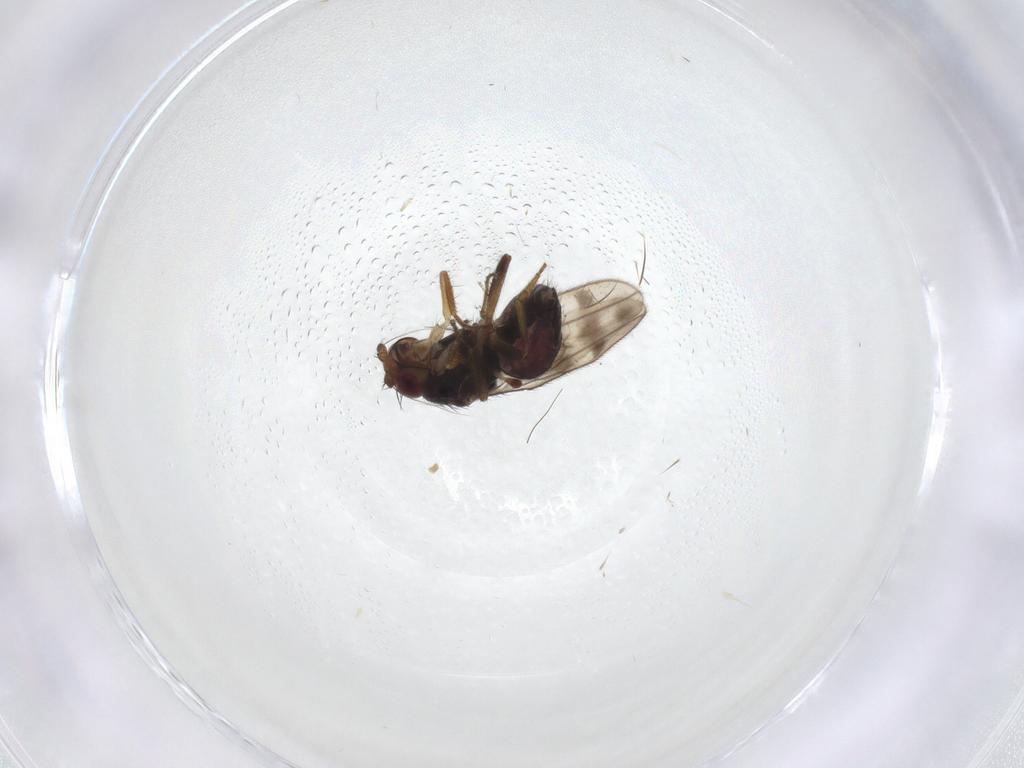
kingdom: Animalia
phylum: Arthropoda
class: Insecta
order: Diptera
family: Sphaeroceridae
